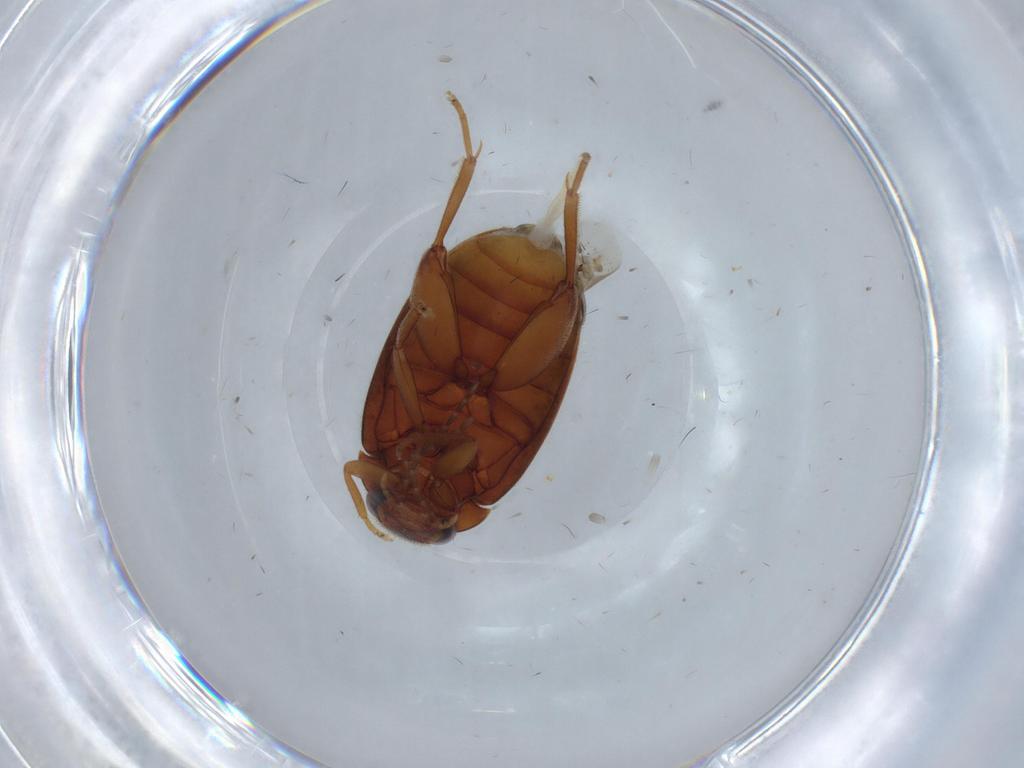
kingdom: Animalia
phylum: Arthropoda
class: Insecta
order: Coleoptera
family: Scirtidae
